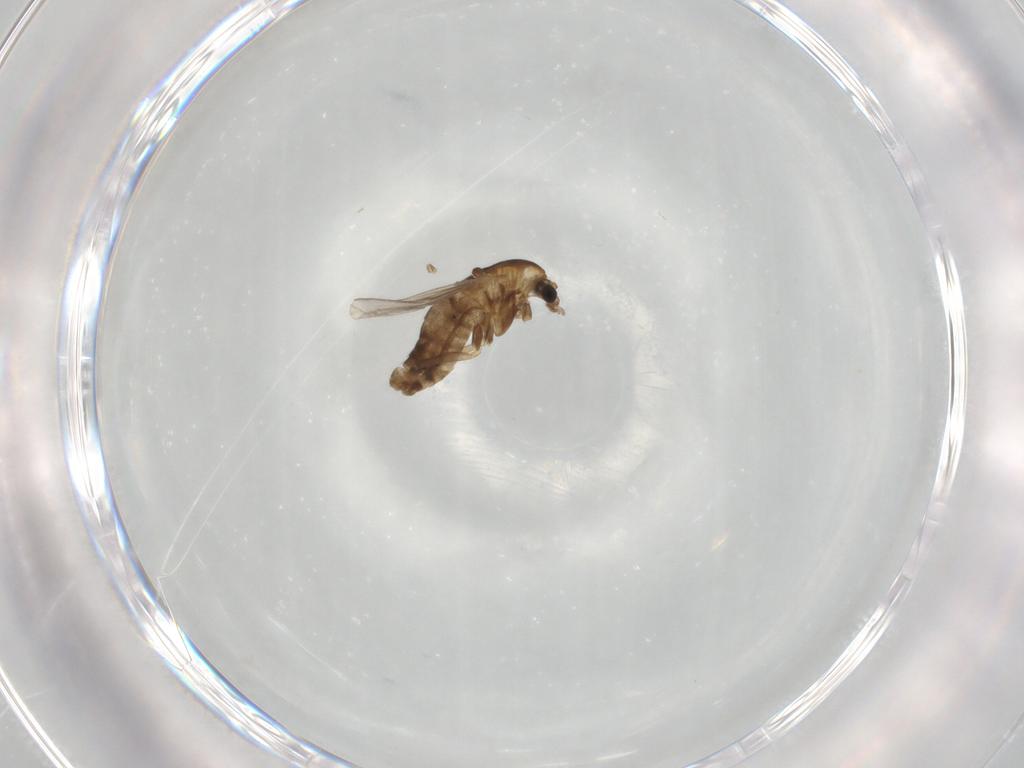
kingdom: Animalia
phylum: Arthropoda
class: Insecta
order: Diptera
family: Chironomidae
